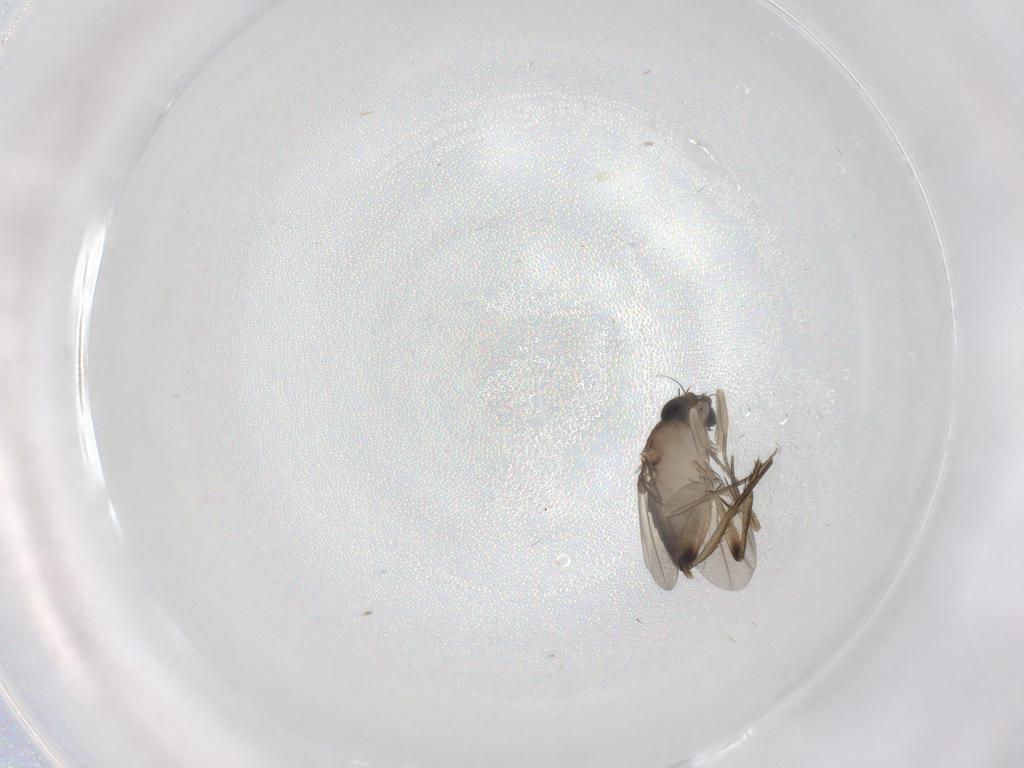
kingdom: Animalia
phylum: Arthropoda
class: Insecta
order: Diptera
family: Phoridae
